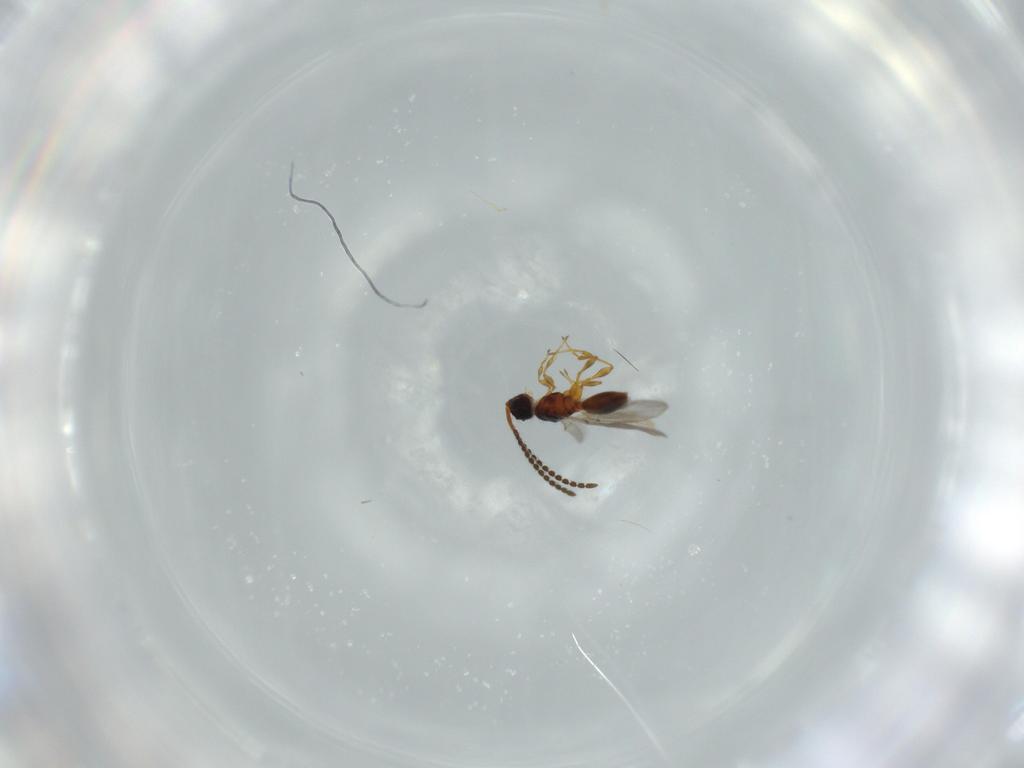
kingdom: Animalia
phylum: Arthropoda
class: Insecta
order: Hymenoptera
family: Diapriidae
